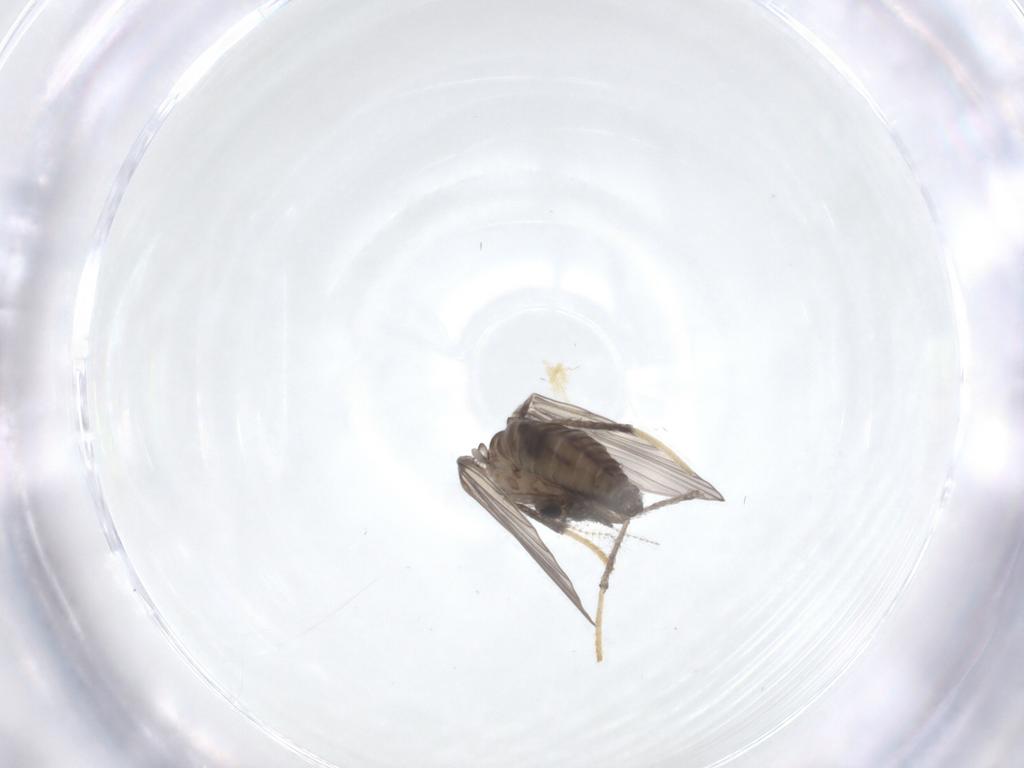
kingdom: Animalia
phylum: Arthropoda
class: Insecta
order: Diptera
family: Psychodidae
